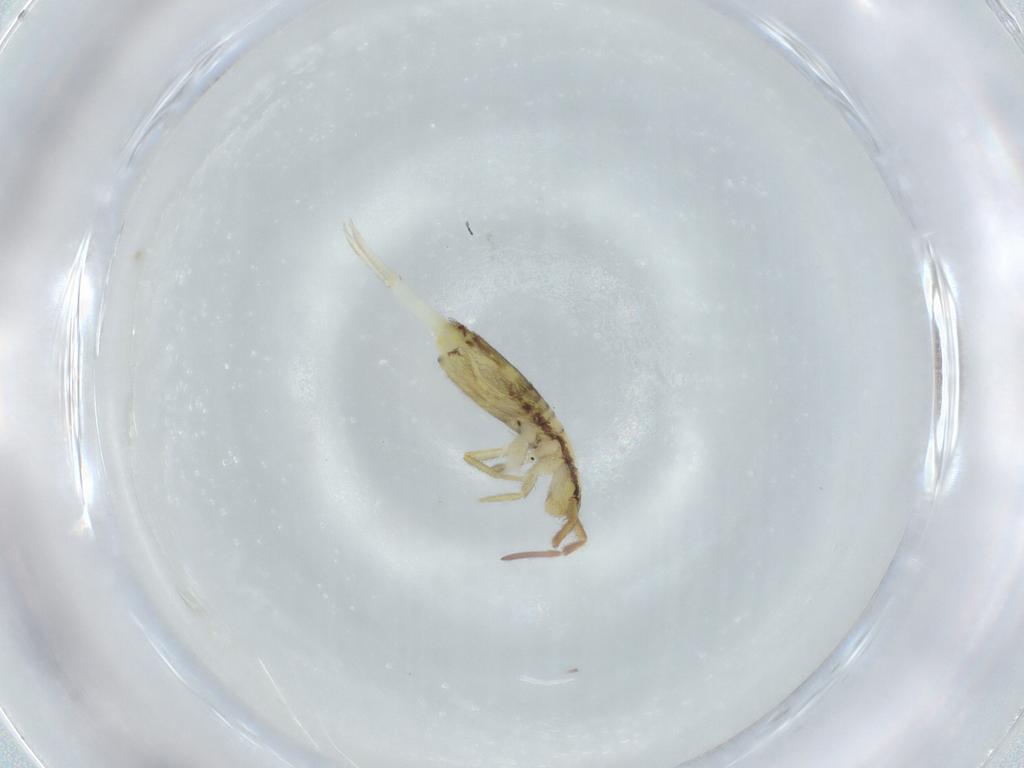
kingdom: Animalia
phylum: Arthropoda
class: Collembola
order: Entomobryomorpha
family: Entomobryidae
